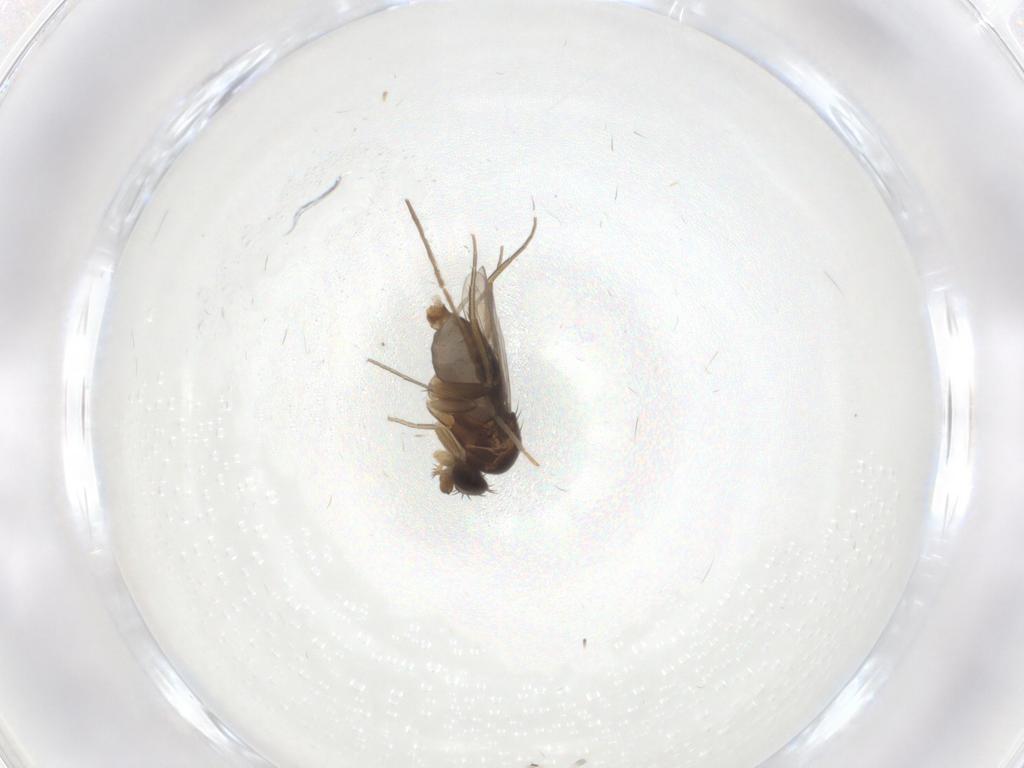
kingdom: Animalia
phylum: Arthropoda
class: Insecta
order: Diptera
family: Phoridae
